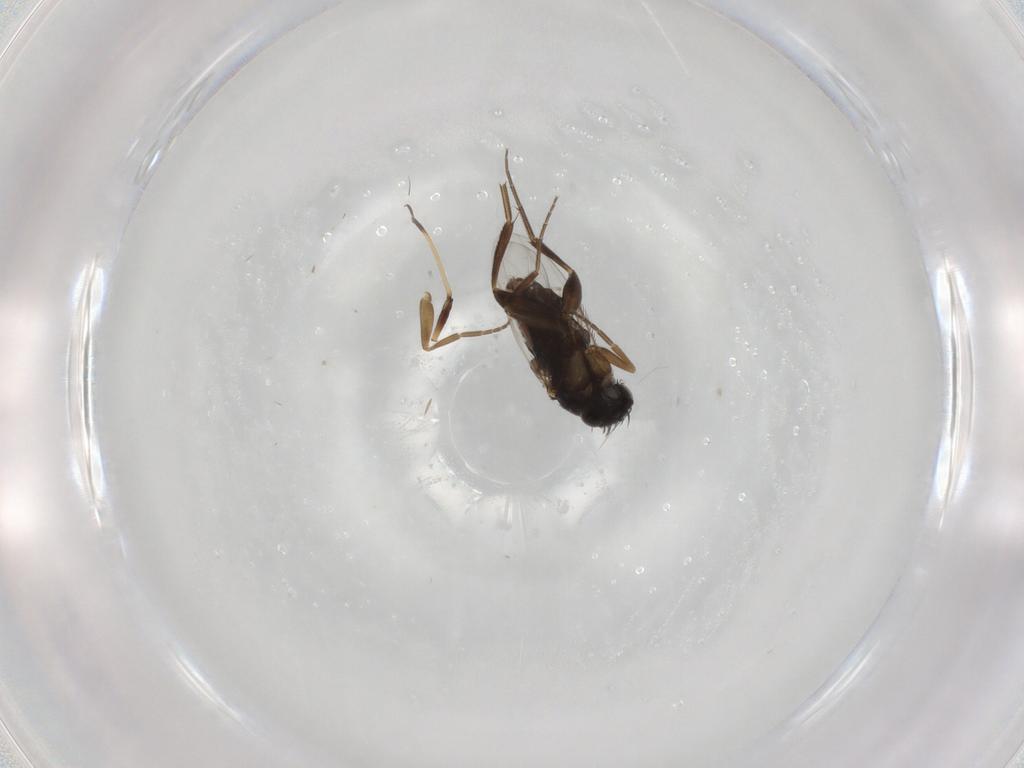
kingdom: Animalia
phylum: Arthropoda
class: Insecta
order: Diptera
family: Phoridae
